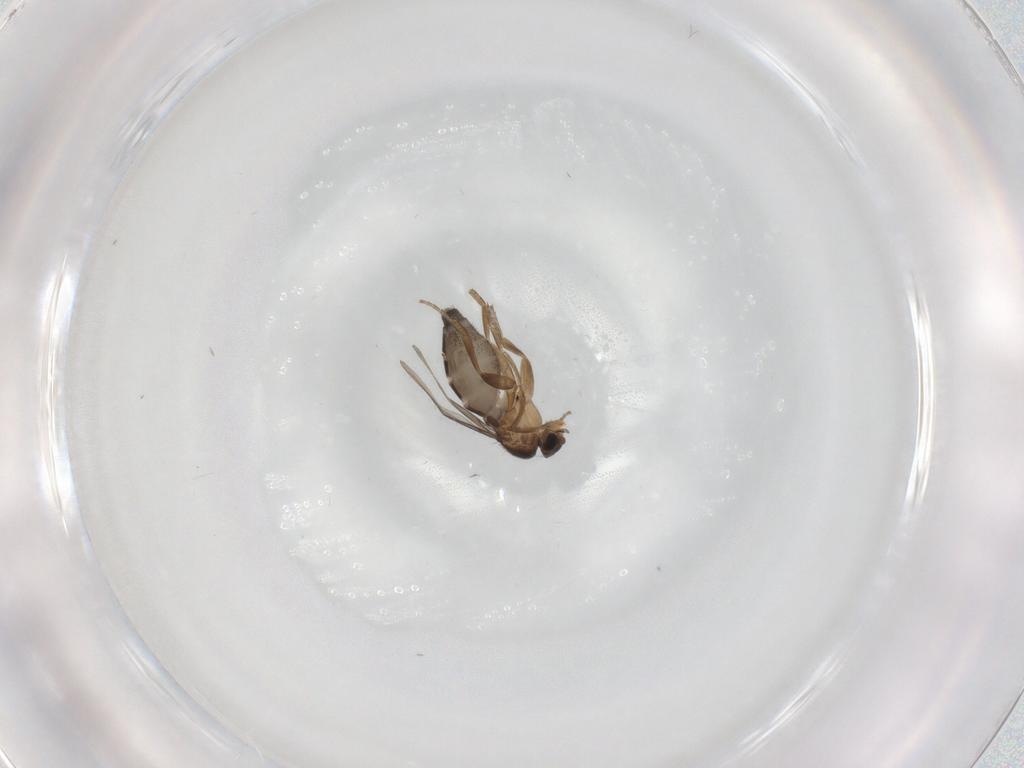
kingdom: Animalia
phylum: Arthropoda
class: Insecta
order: Diptera
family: Phoridae
